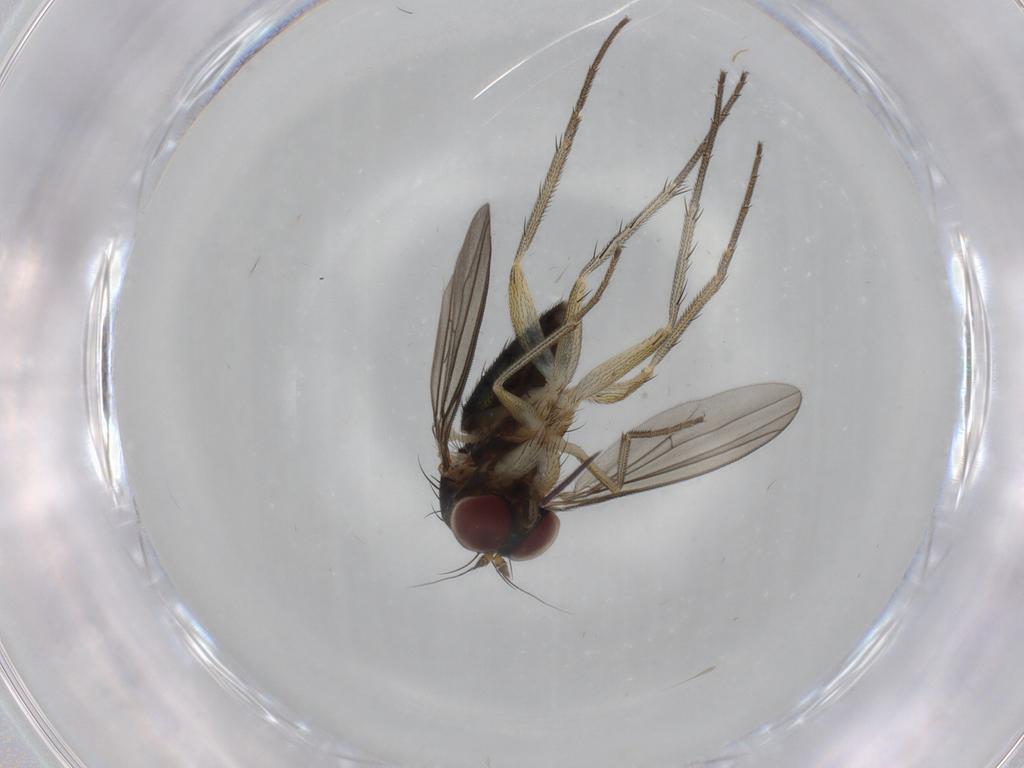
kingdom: Animalia
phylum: Arthropoda
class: Insecta
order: Diptera
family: Dolichopodidae
